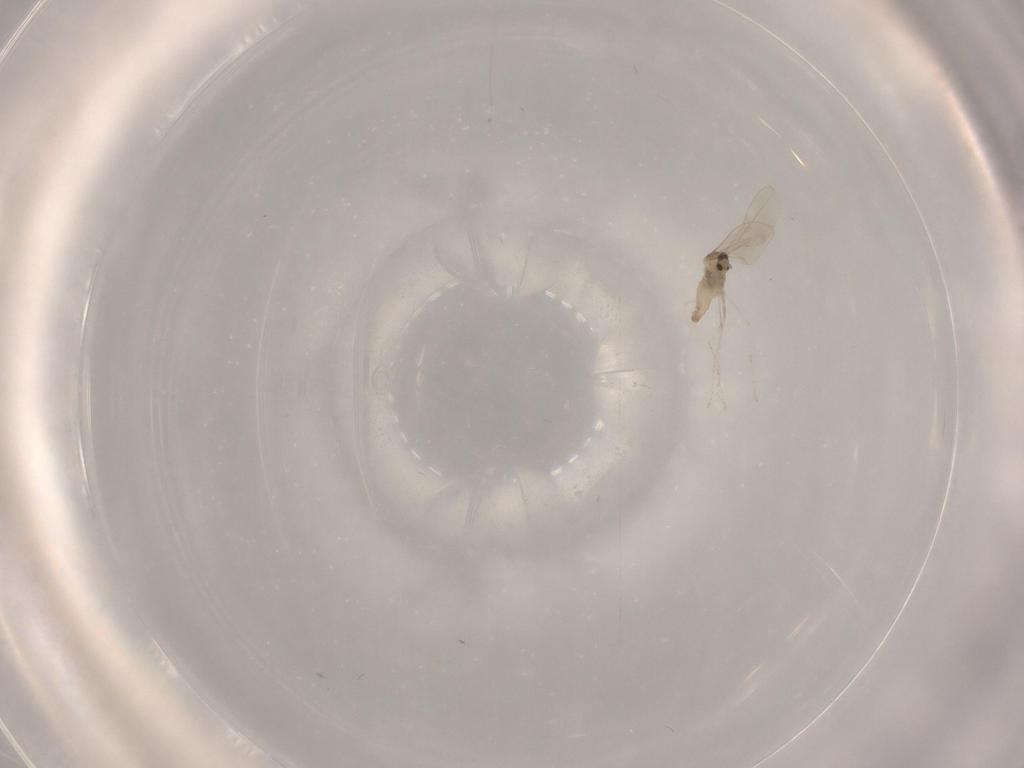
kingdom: Animalia
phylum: Arthropoda
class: Insecta
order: Diptera
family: Cecidomyiidae
